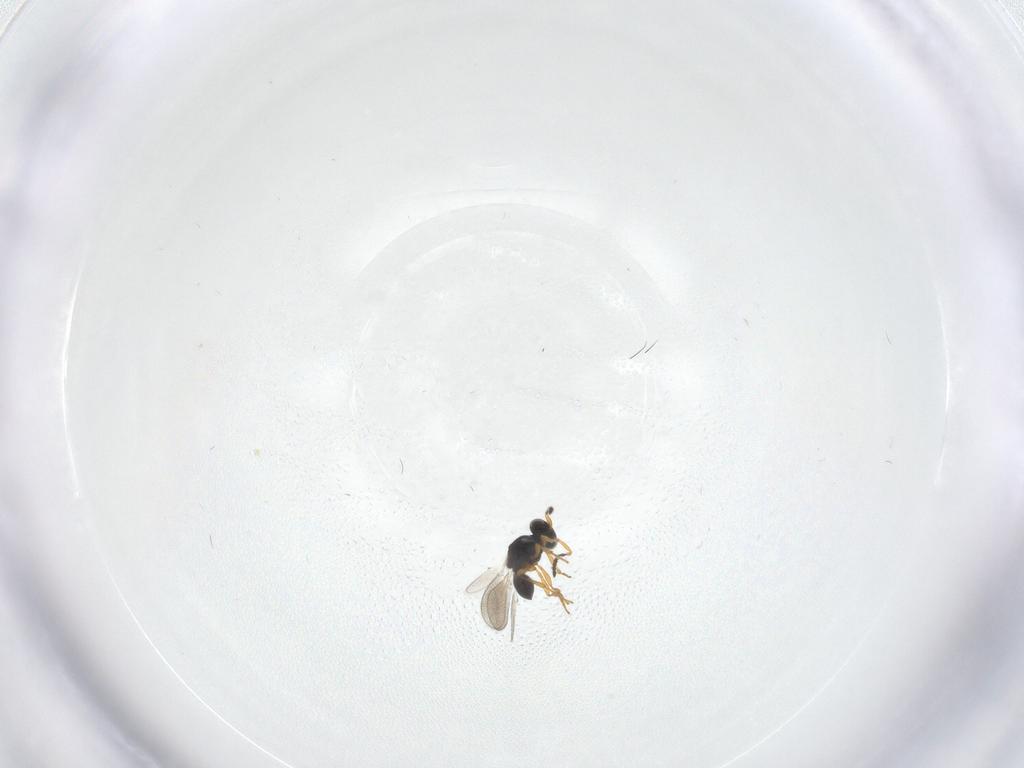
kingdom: Animalia
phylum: Arthropoda
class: Insecta
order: Hymenoptera
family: Platygastridae
